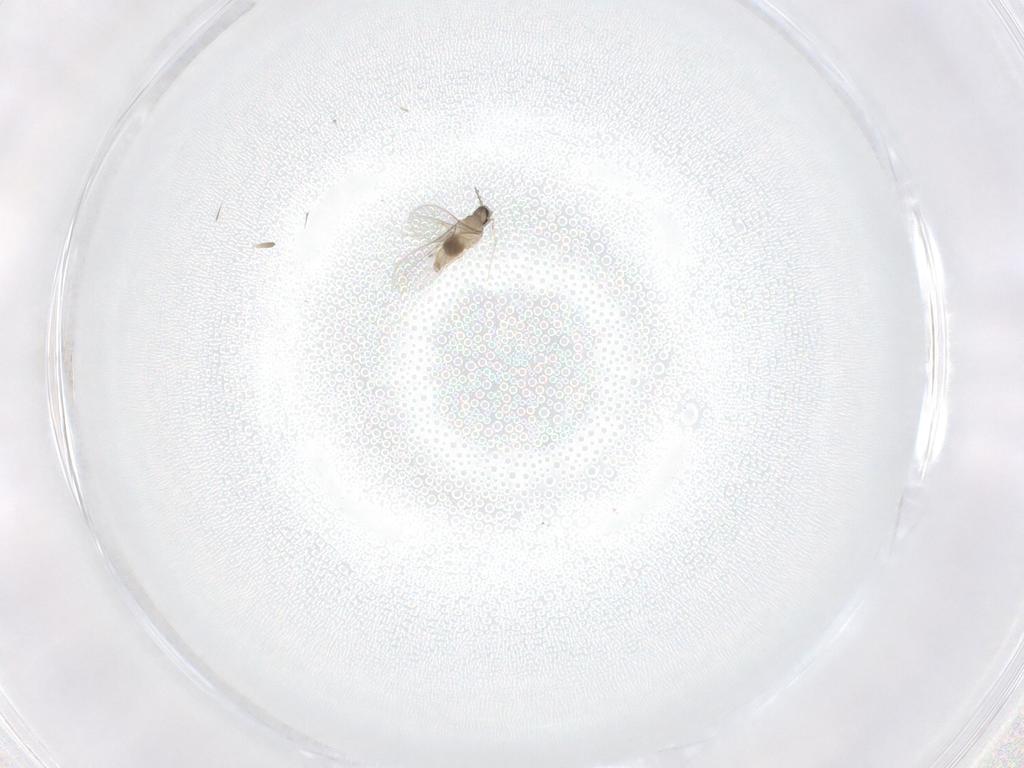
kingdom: Animalia
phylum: Arthropoda
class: Insecta
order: Diptera
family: Cecidomyiidae
